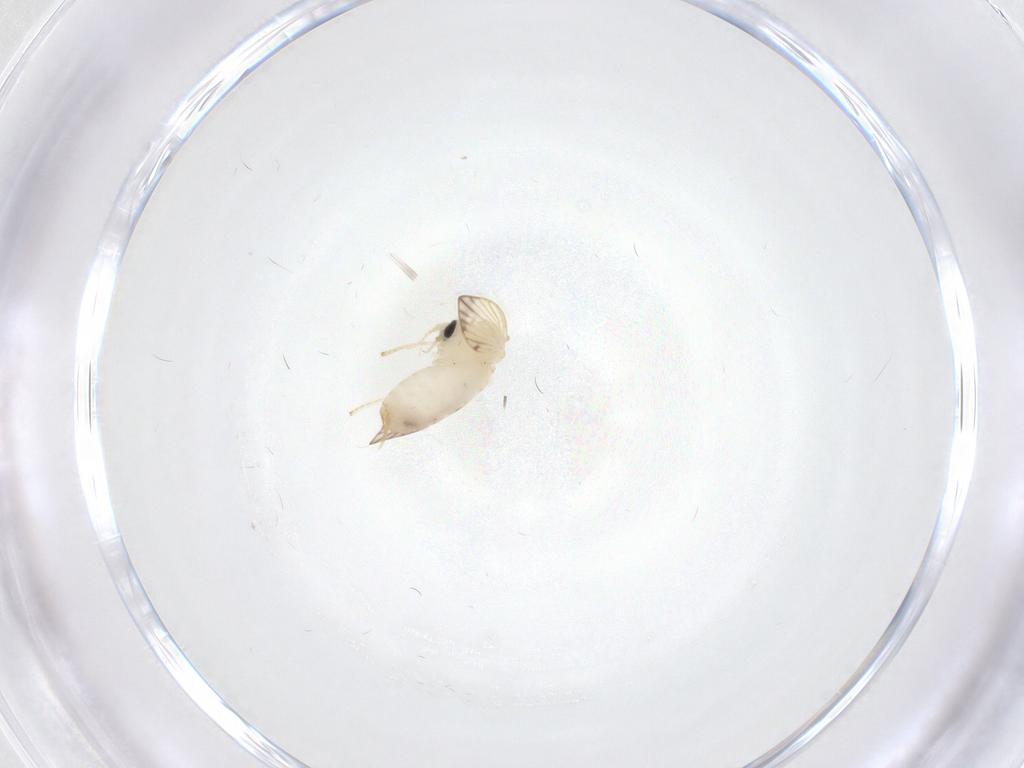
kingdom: Animalia
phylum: Arthropoda
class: Insecta
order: Diptera
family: Psychodidae
